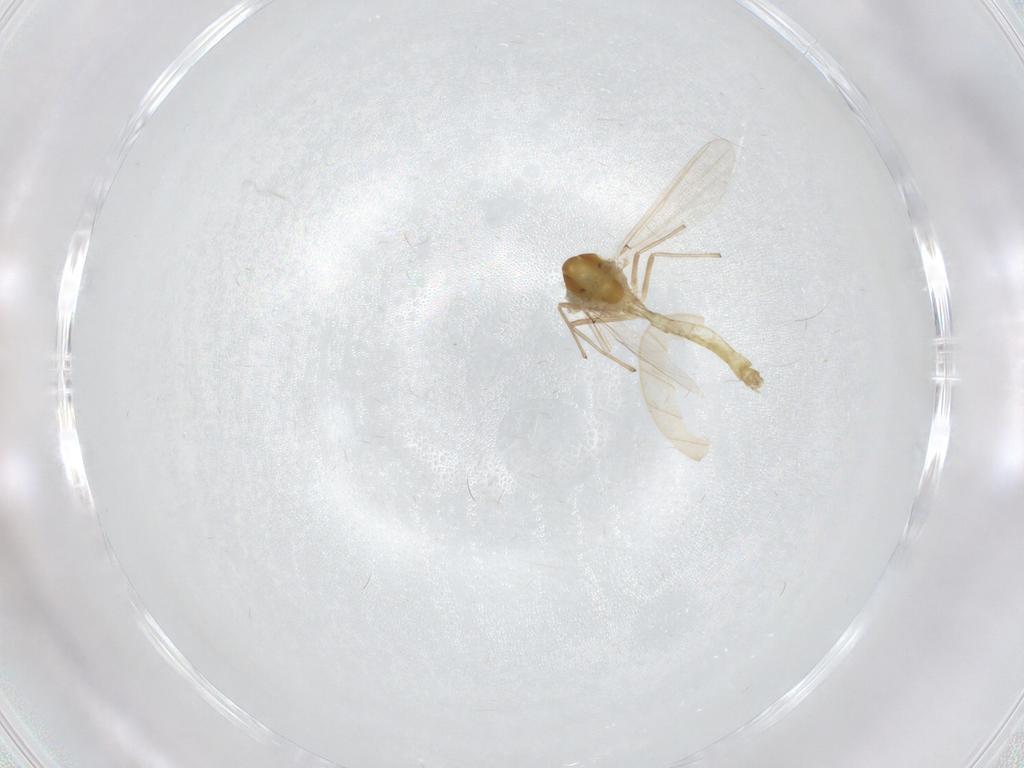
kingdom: Animalia
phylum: Arthropoda
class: Insecta
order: Diptera
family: Chironomidae
